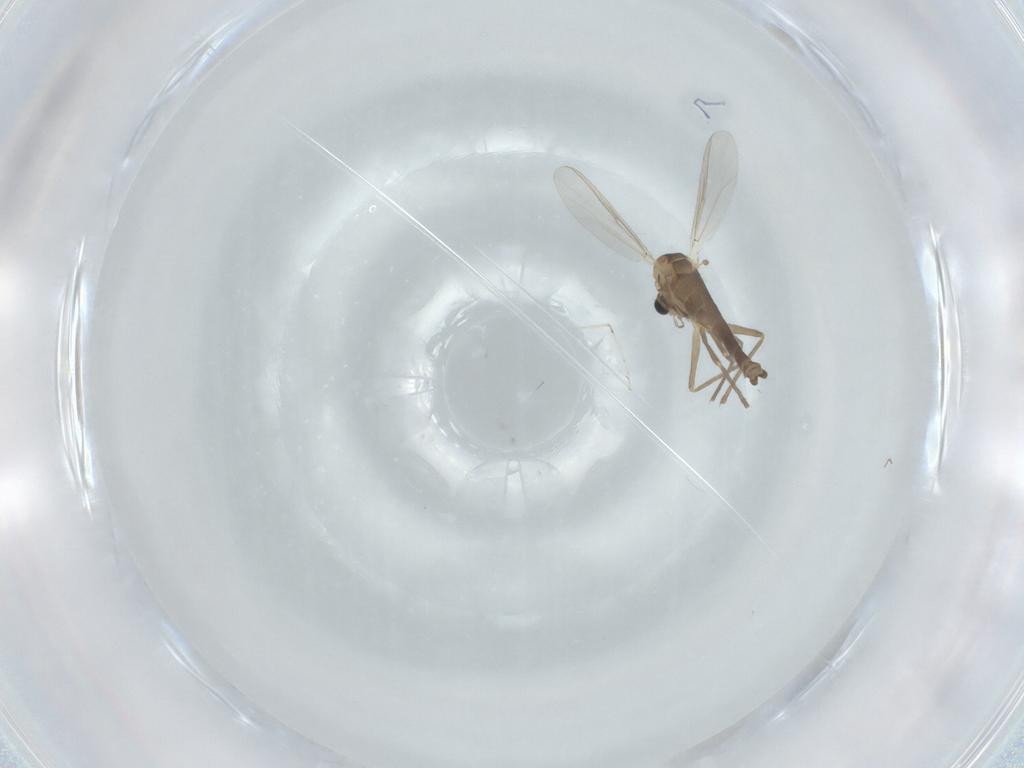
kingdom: Animalia
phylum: Arthropoda
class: Insecta
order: Diptera
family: Chironomidae
